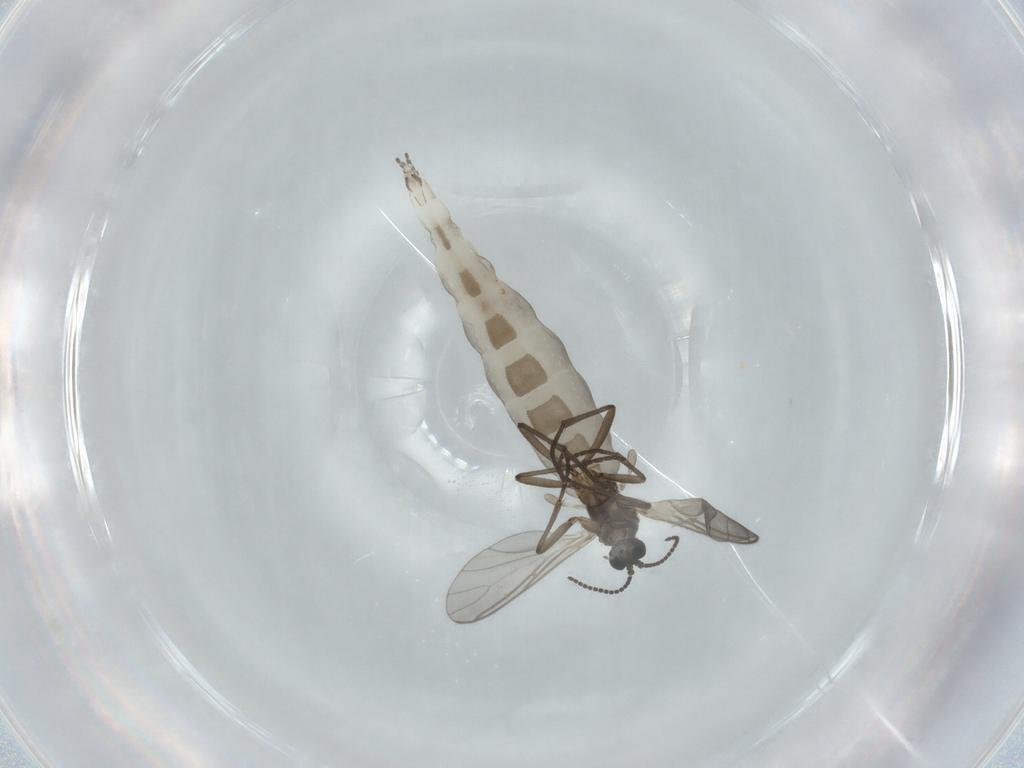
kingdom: Animalia
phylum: Arthropoda
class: Insecta
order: Diptera
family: Sciaridae
